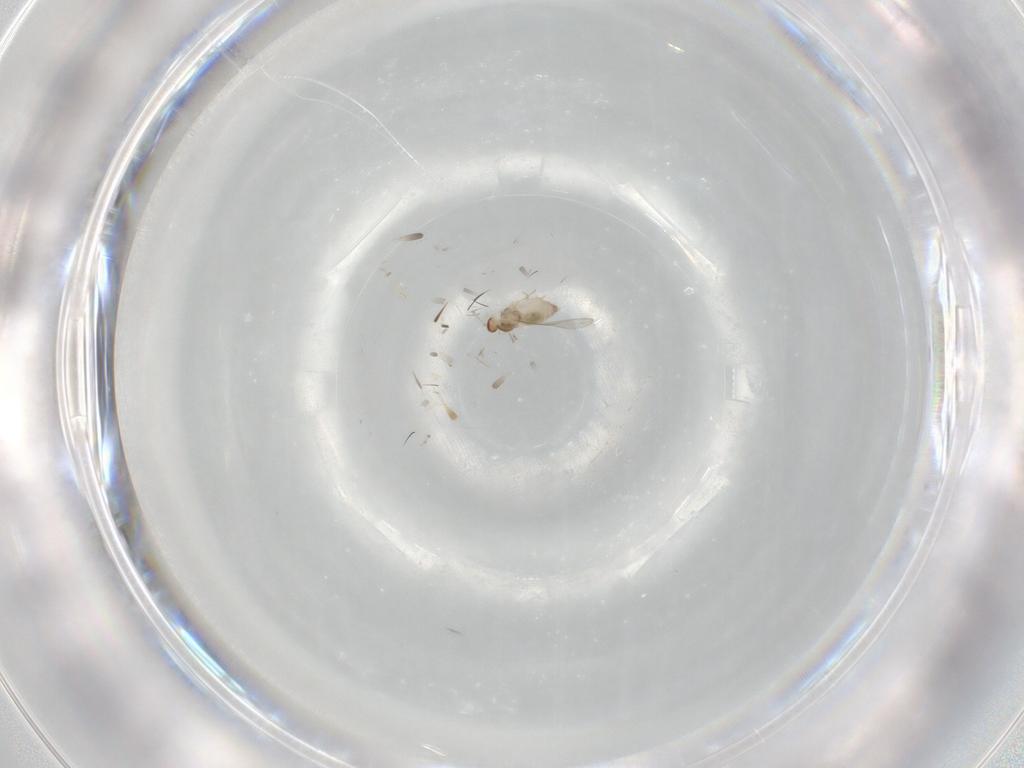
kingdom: Animalia
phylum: Arthropoda
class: Insecta
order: Diptera
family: Cecidomyiidae
